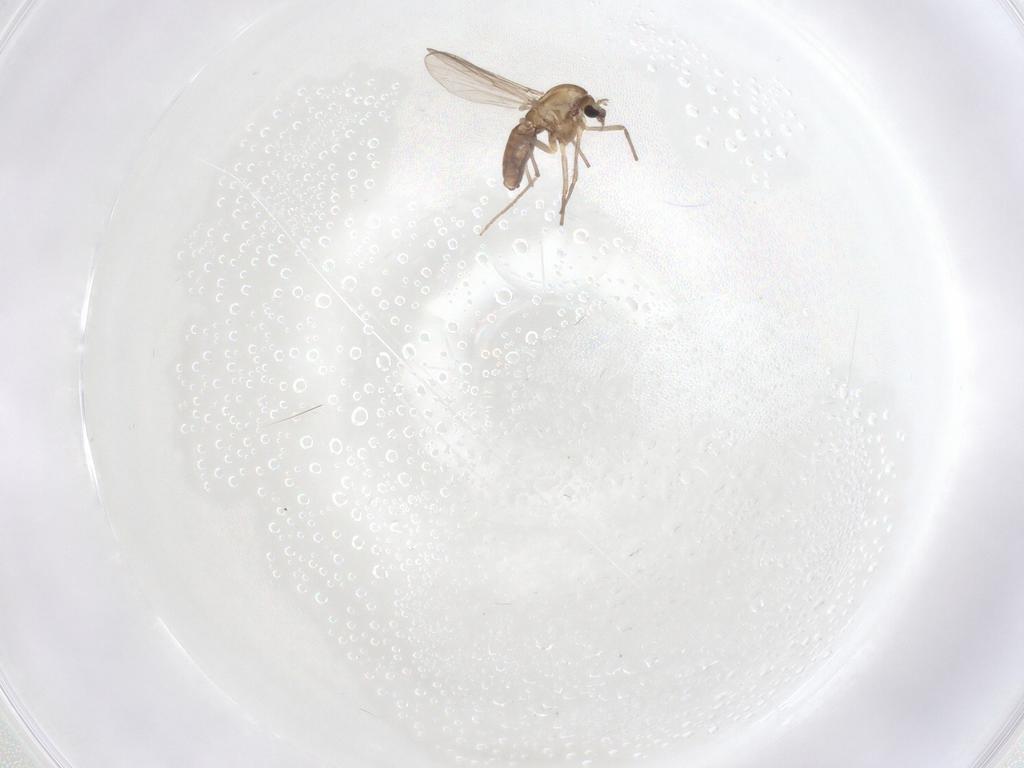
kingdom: Animalia
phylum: Arthropoda
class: Insecta
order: Diptera
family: Chironomidae
